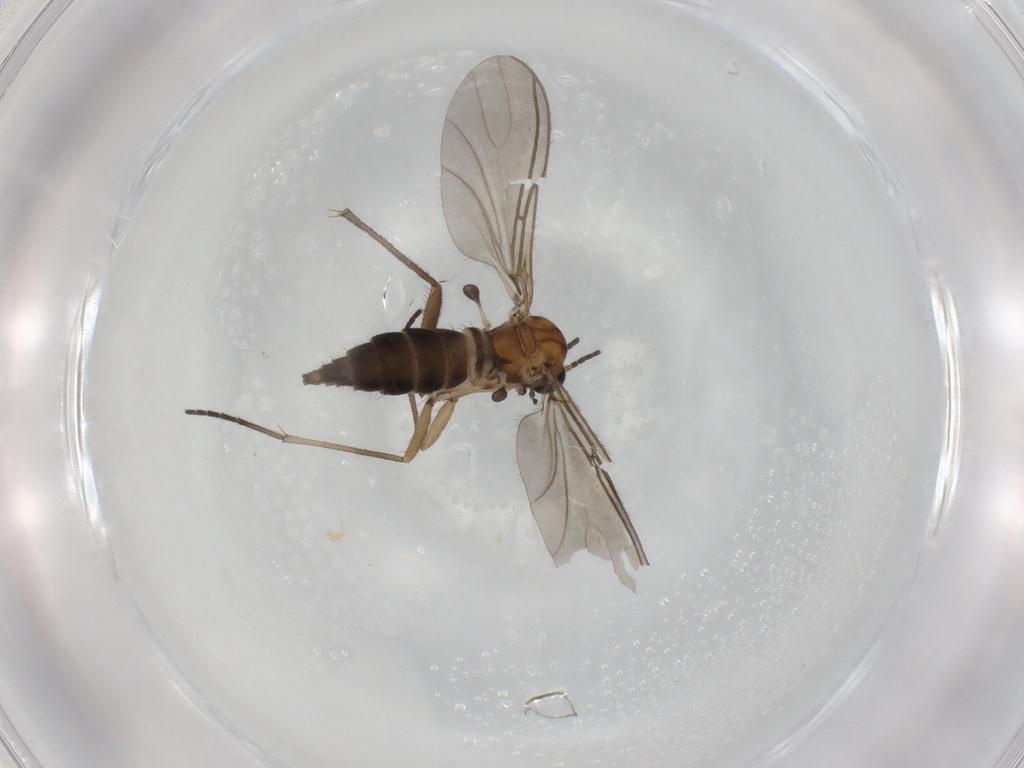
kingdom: Animalia
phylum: Arthropoda
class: Insecta
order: Diptera
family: Sciaridae
